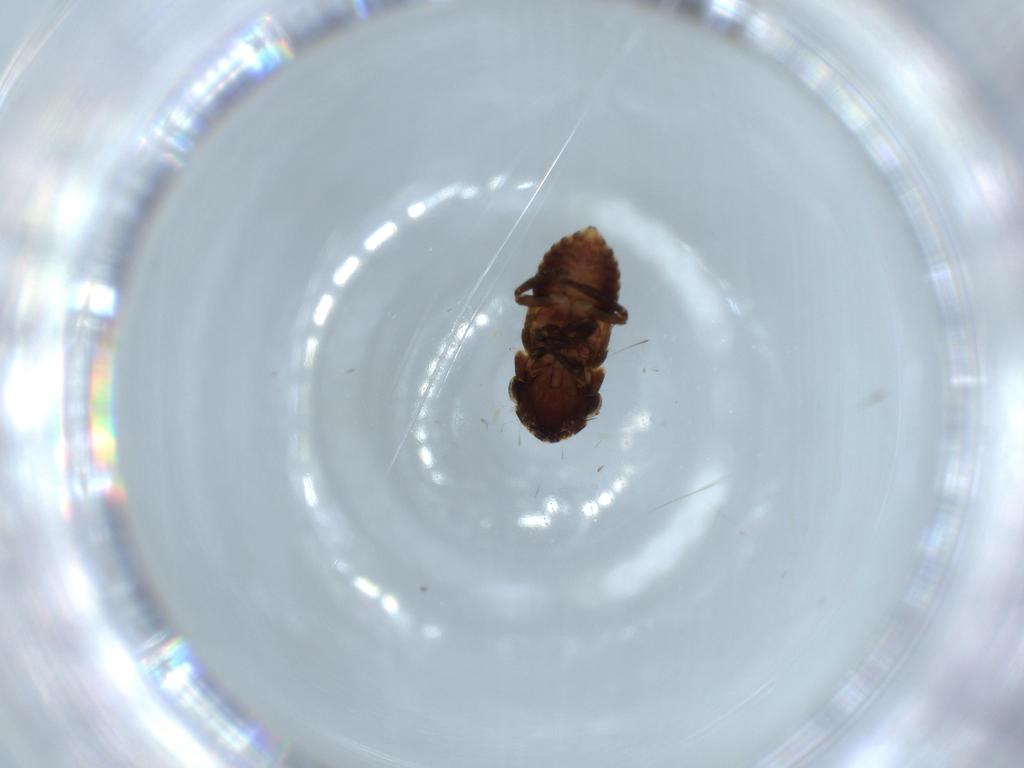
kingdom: Animalia
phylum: Arthropoda
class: Insecta
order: Hemiptera
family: Cicadellidae
